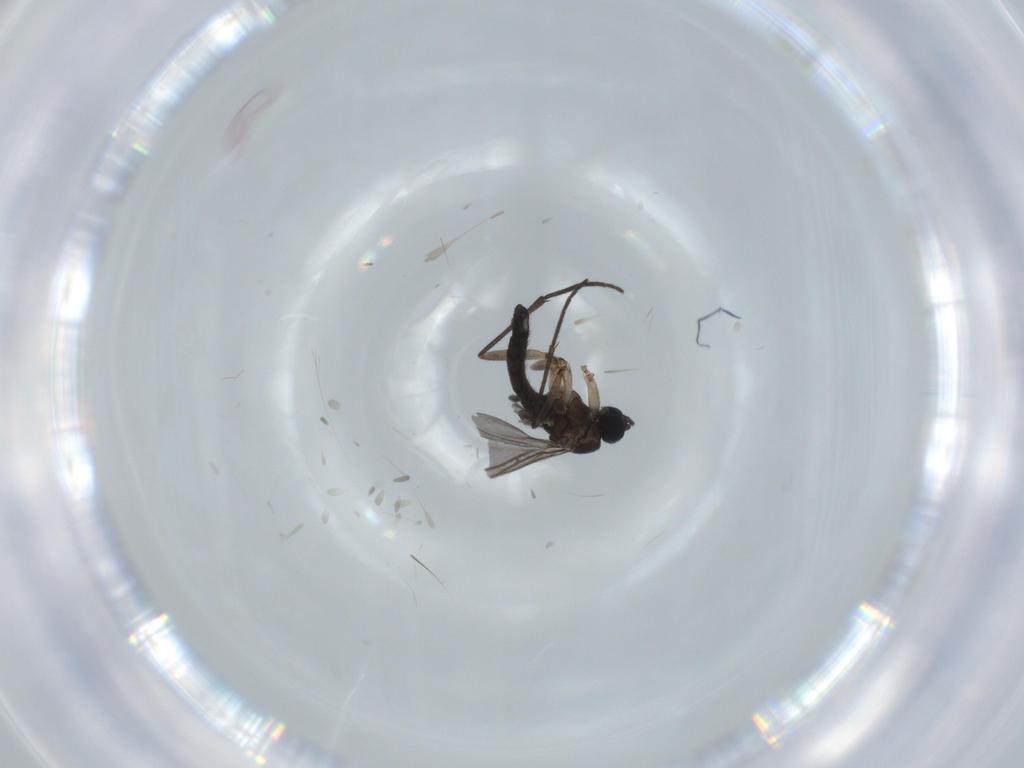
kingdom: Animalia
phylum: Arthropoda
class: Insecta
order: Diptera
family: Sciaridae
